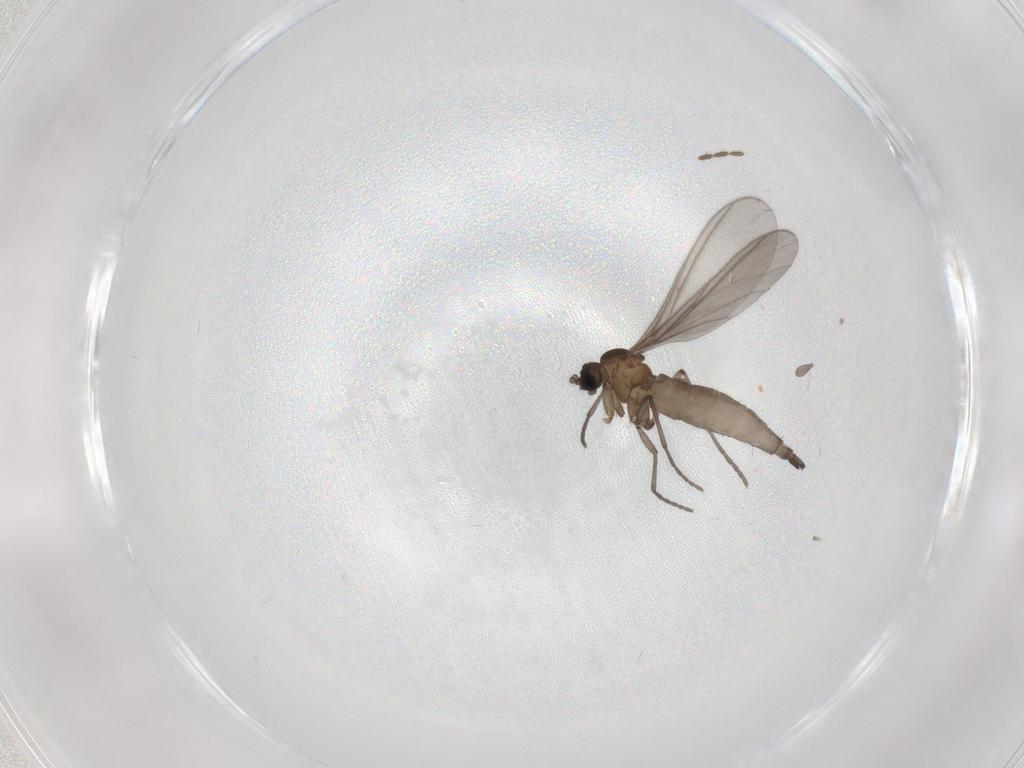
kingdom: Animalia
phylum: Arthropoda
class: Insecta
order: Diptera
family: Sciaridae
